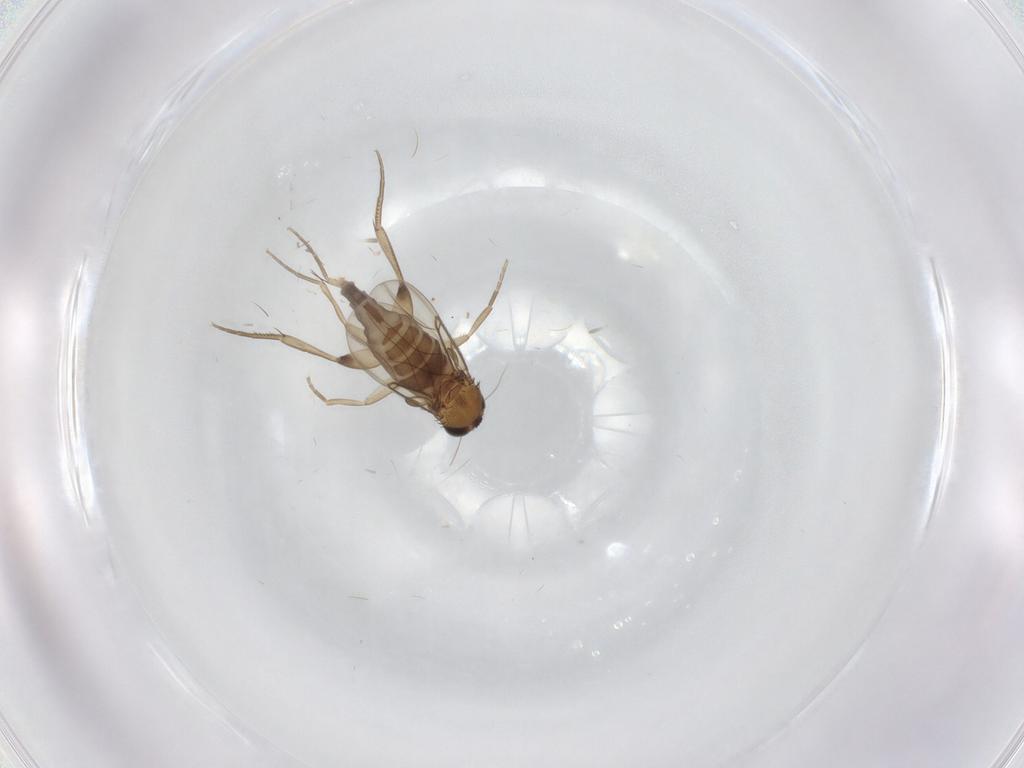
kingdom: Animalia
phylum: Arthropoda
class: Insecta
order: Diptera
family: Phoridae
